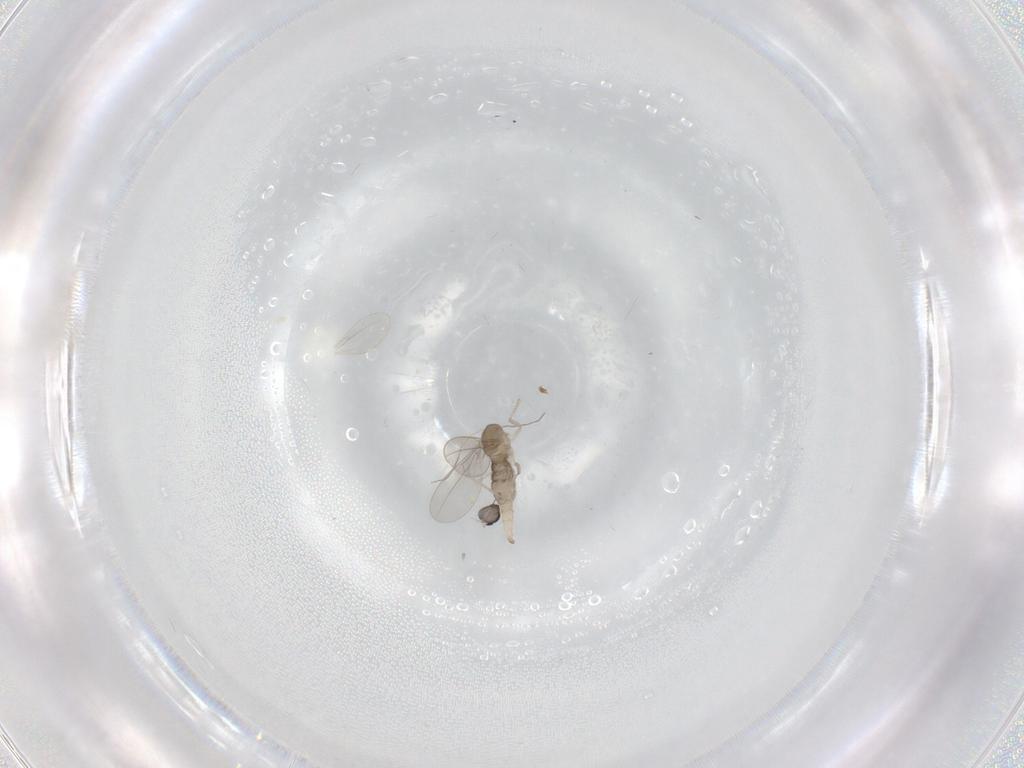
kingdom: Animalia
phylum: Arthropoda
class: Insecta
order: Diptera
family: Cecidomyiidae
